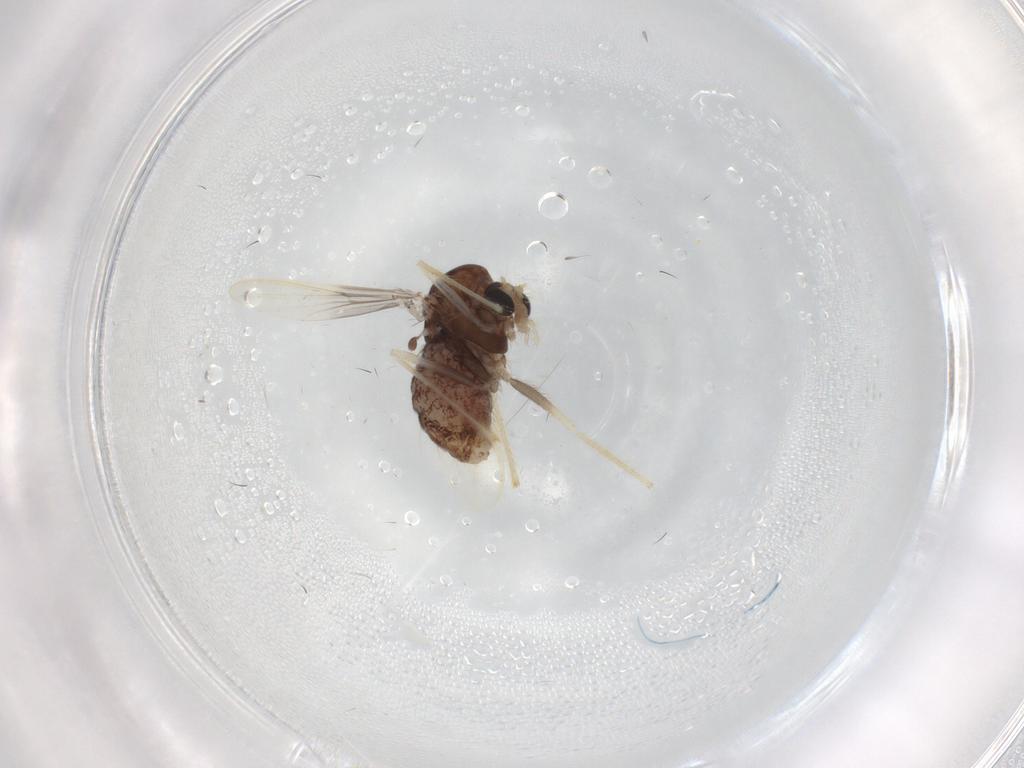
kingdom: Animalia
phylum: Arthropoda
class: Insecta
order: Diptera
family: Chironomidae
